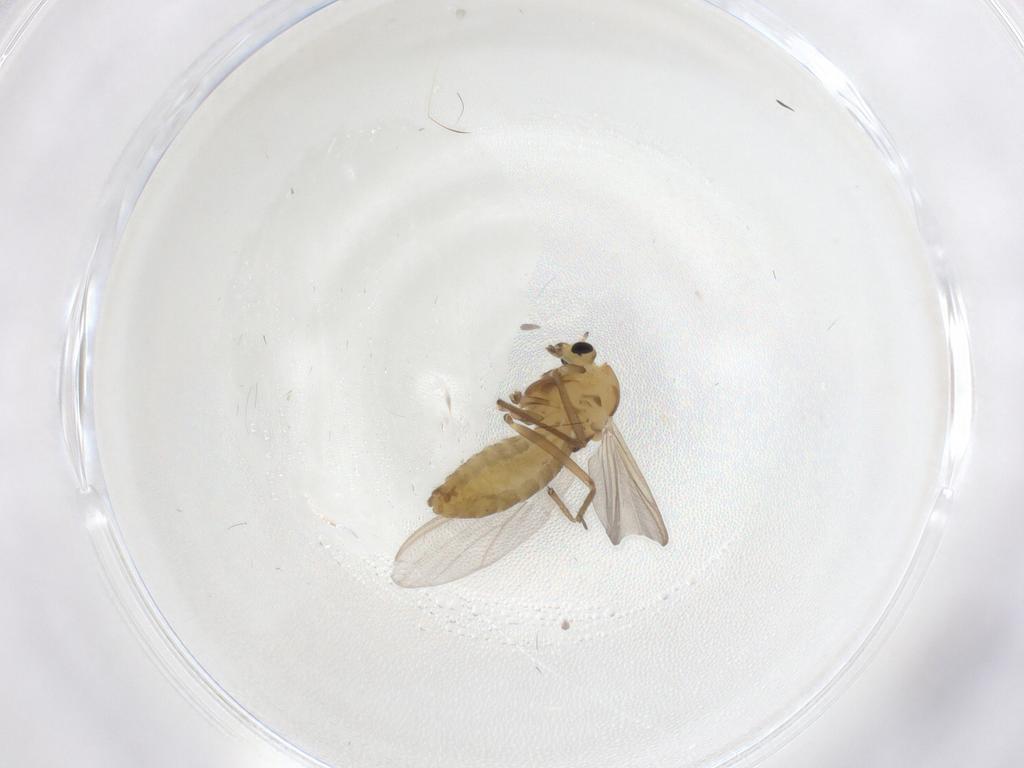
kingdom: Animalia
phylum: Arthropoda
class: Insecta
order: Diptera
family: Chironomidae
